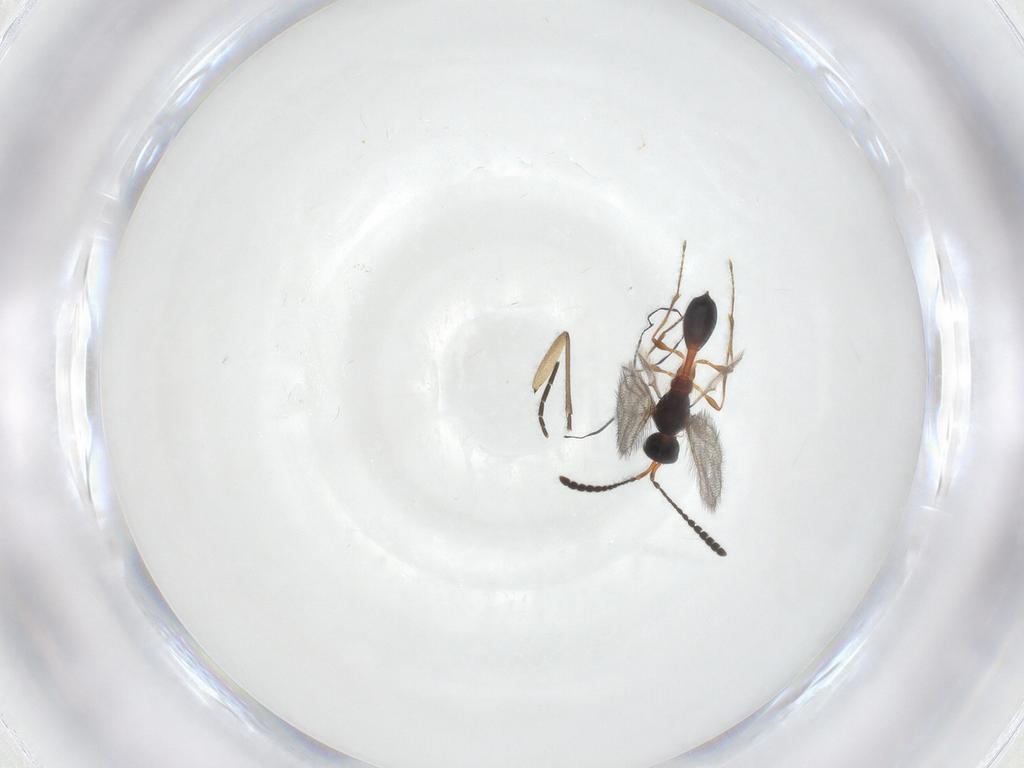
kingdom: Animalia
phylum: Arthropoda
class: Insecta
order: Hymenoptera
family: Diapriidae
